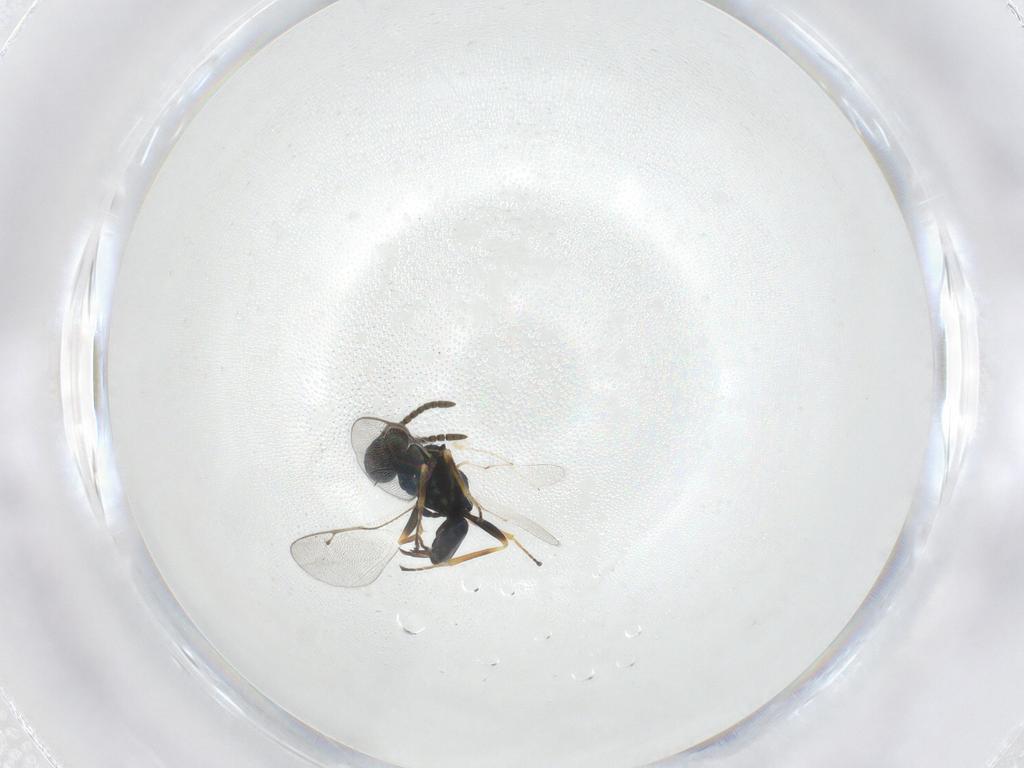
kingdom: Animalia
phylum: Arthropoda
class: Insecta
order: Hymenoptera
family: Pteromalidae
